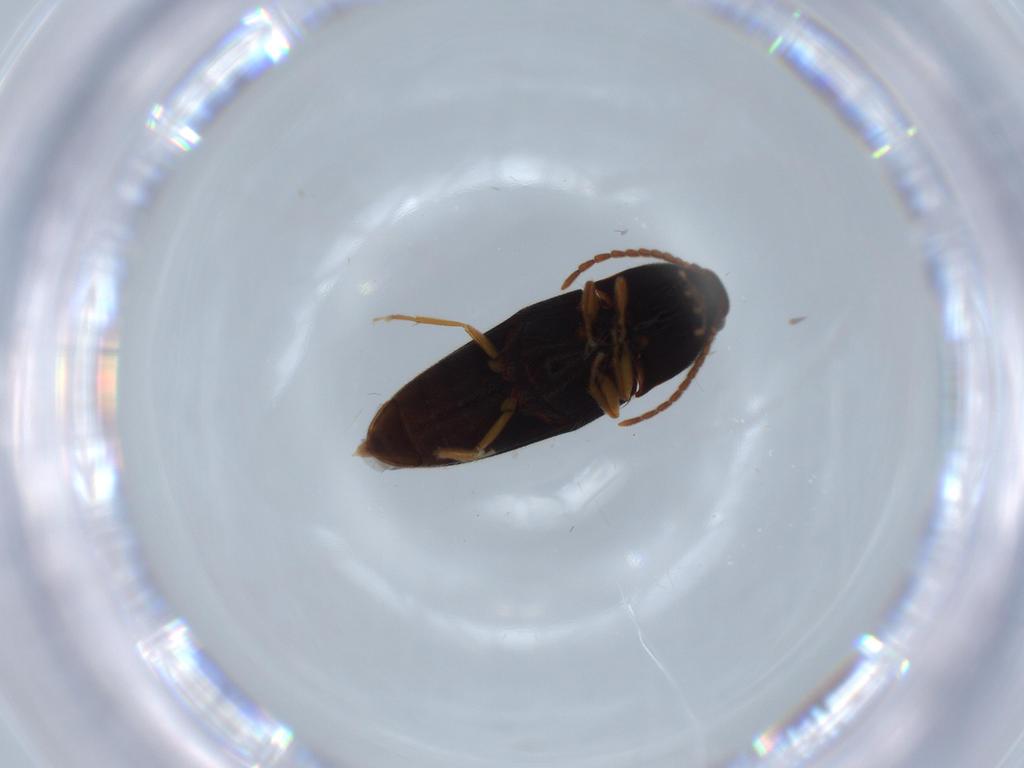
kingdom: Animalia
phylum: Arthropoda
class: Insecta
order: Coleoptera
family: Elateridae
